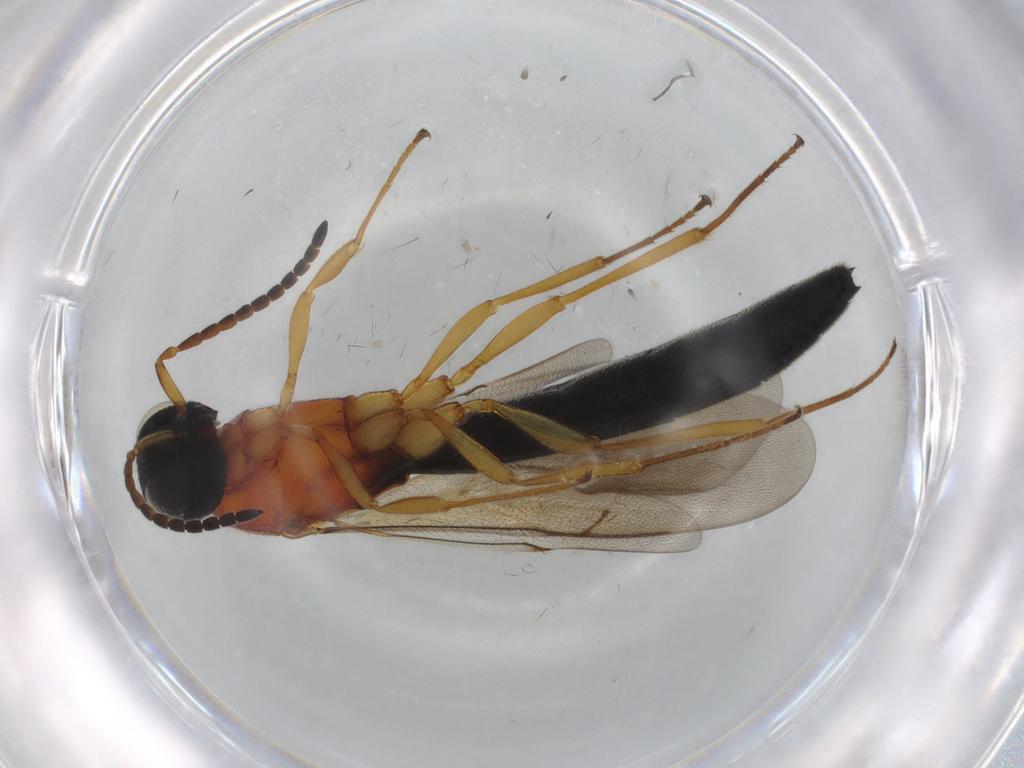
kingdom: Animalia
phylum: Arthropoda
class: Insecta
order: Hymenoptera
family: Scelionidae
